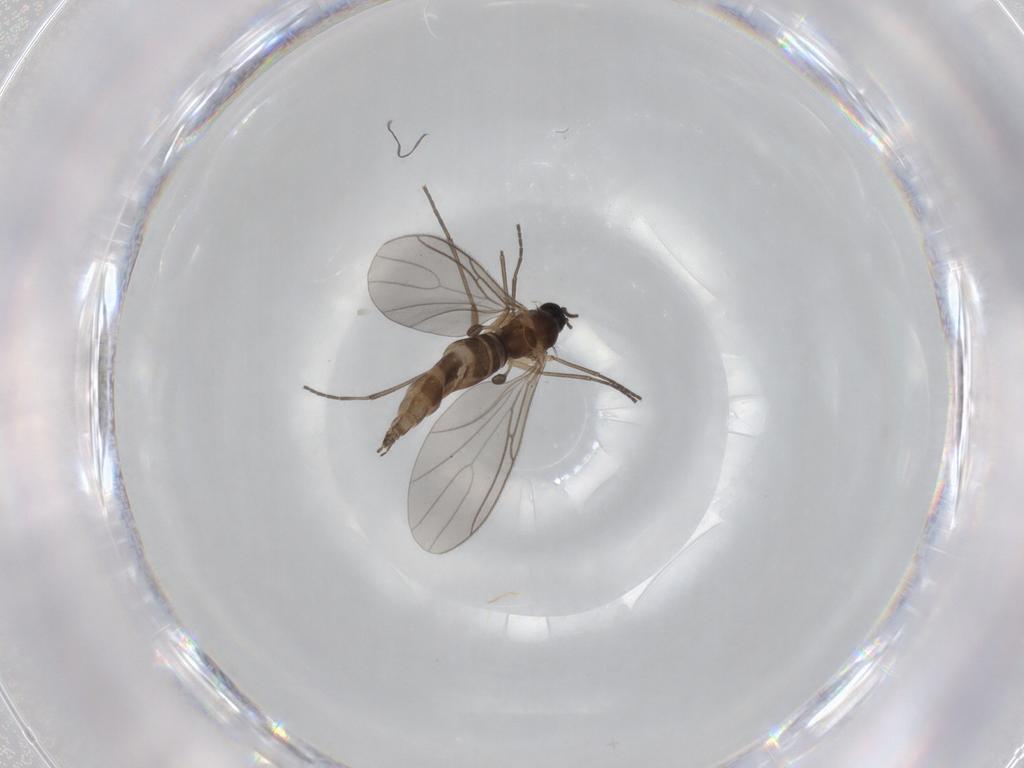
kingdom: Animalia
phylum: Arthropoda
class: Insecta
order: Diptera
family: Sciaridae
